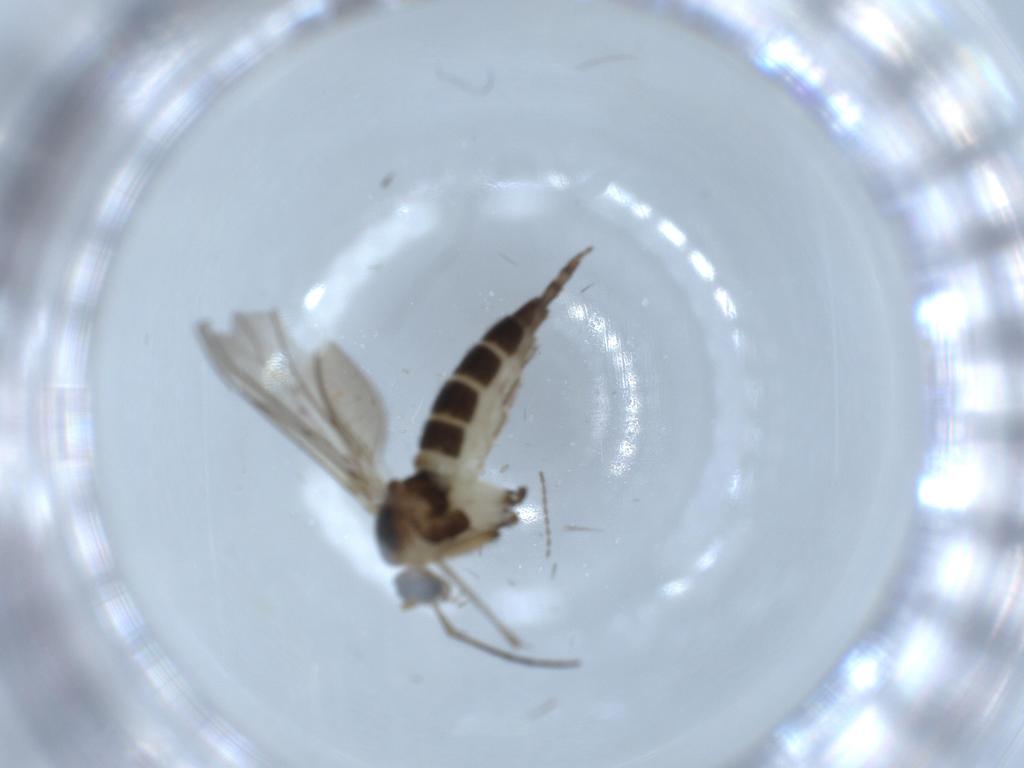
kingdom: Animalia
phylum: Arthropoda
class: Insecta
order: Diptera
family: Sciaridae
